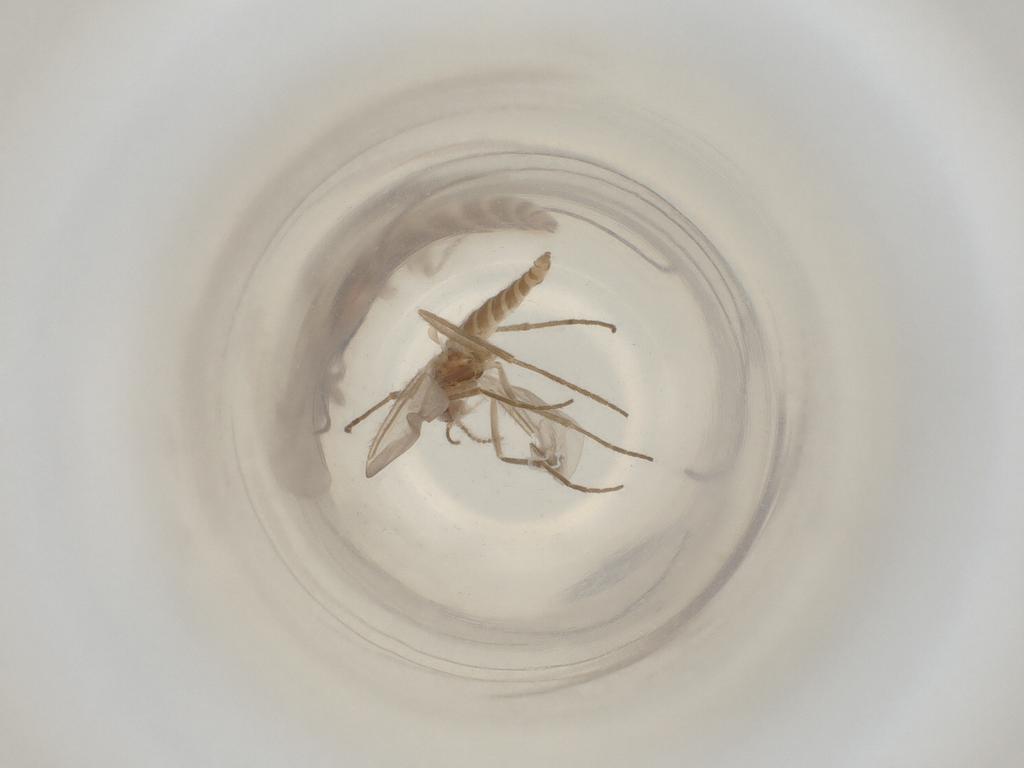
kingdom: Animalia
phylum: Arthropoda
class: Insecta
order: Diptera
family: Cecidomyiidae
